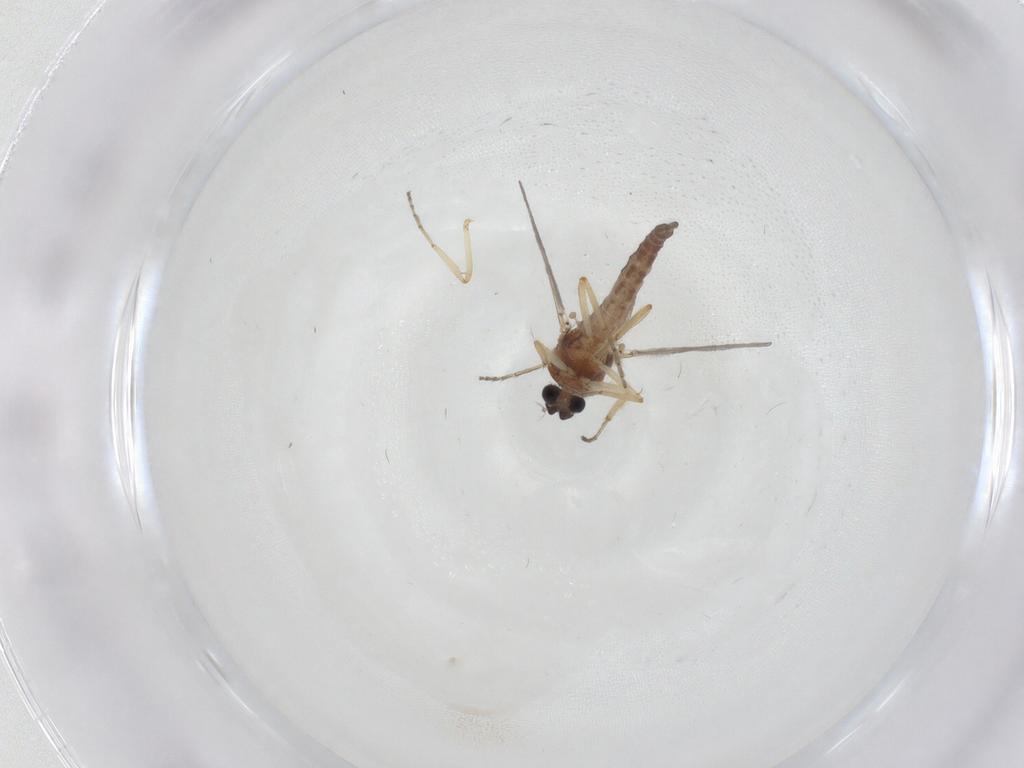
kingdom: Animalia
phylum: Arthropoda
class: Insecta
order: Diptera
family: Ceratopogonidae
